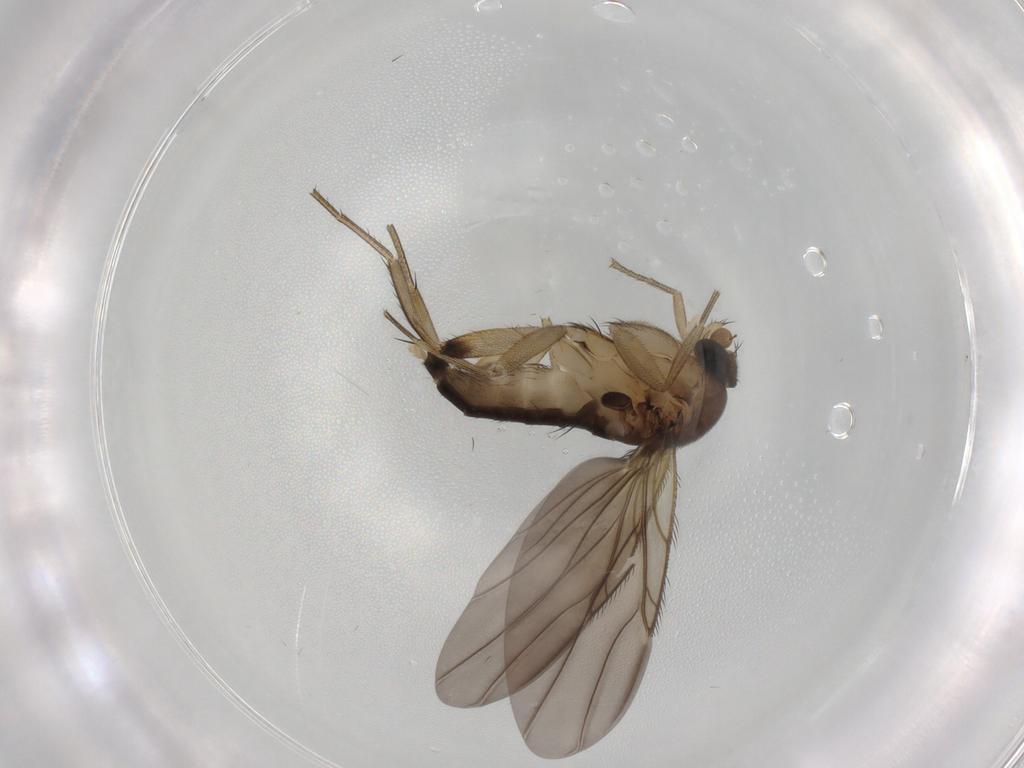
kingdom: Animalia
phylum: Arthropoda
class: Insecta
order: Diptera
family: Phoridae
